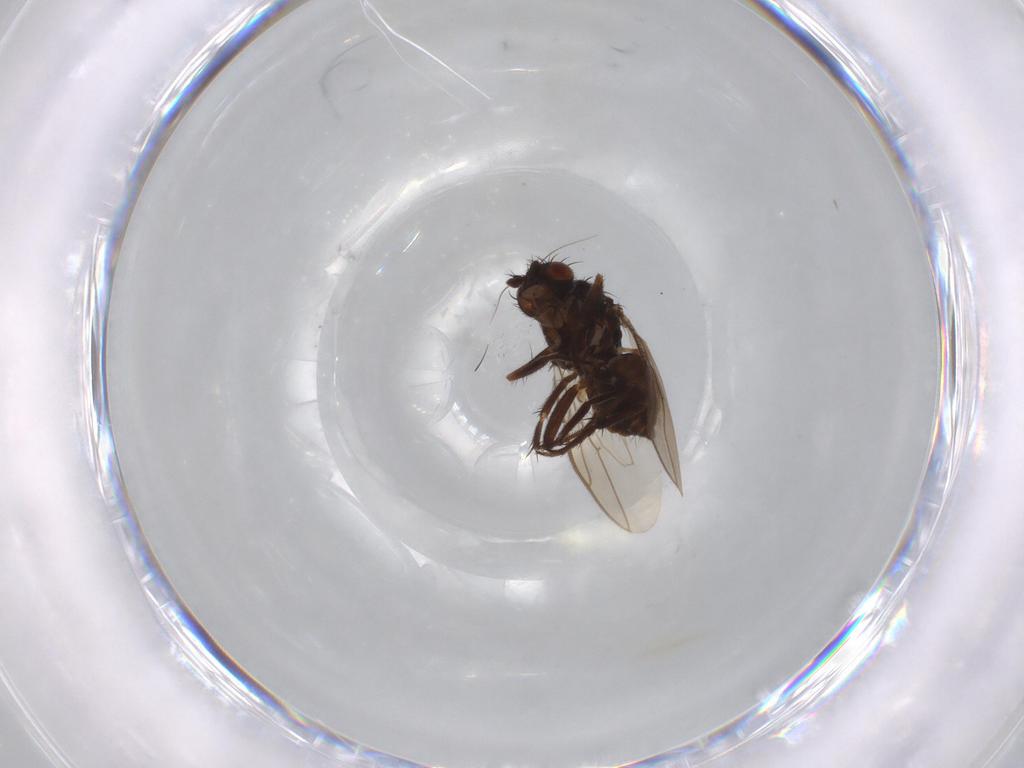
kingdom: Animalia
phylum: Arthropoda
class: Insecta
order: Diptera
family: Sphaeroceridae
